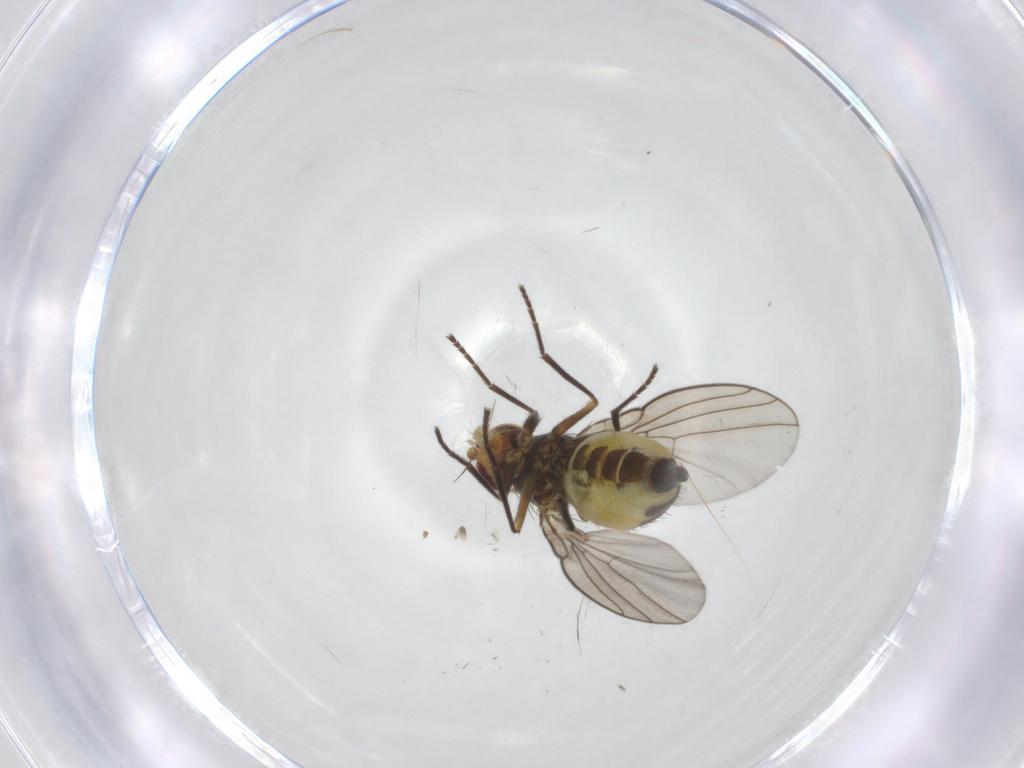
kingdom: Animalia
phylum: Arthropoda
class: Insecta
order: Diptera
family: Agromyzidae
